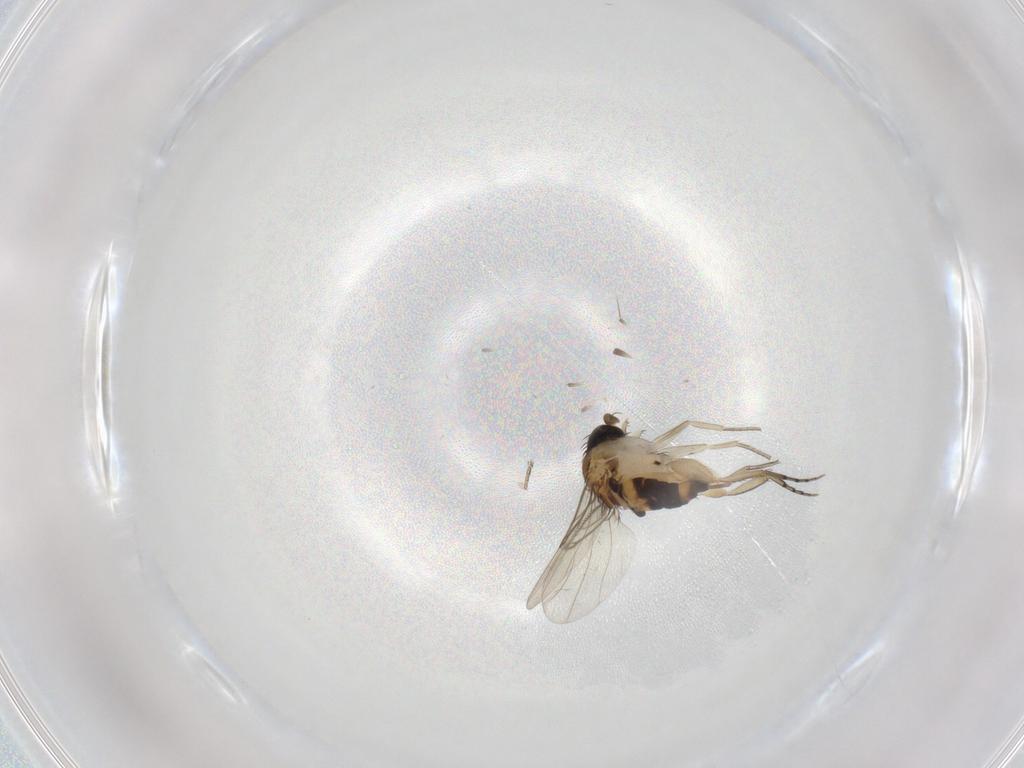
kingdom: Animalia
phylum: Arthropoda
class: Insecta
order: Diptera
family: Phoridae
